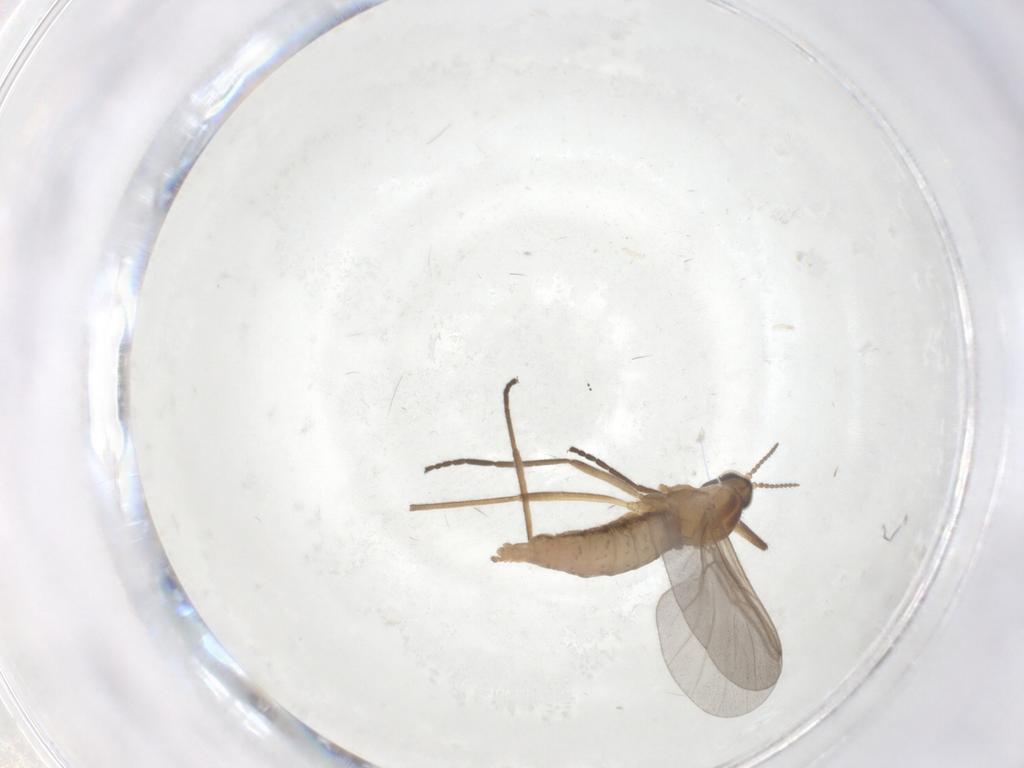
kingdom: Animalia
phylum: Arthropoda
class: Insecta
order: Diptera
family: Cecidomyiidae
